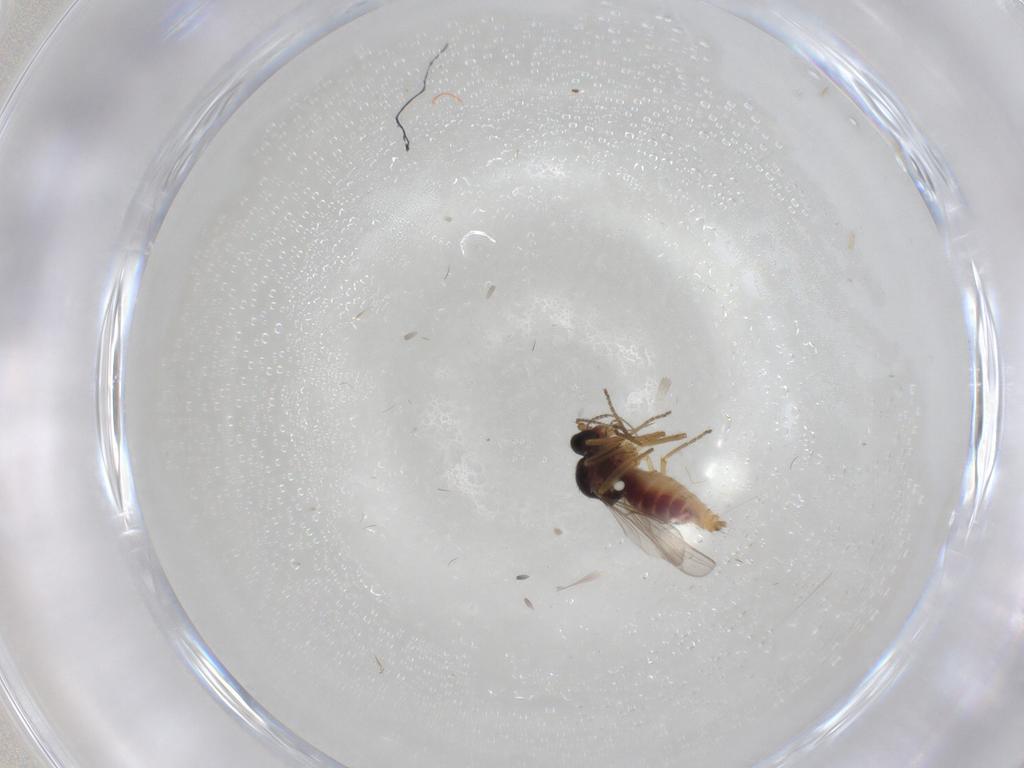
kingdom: Animalia
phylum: Arthropoda
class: Insecta
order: Diptera
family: Ceratopogonidae
